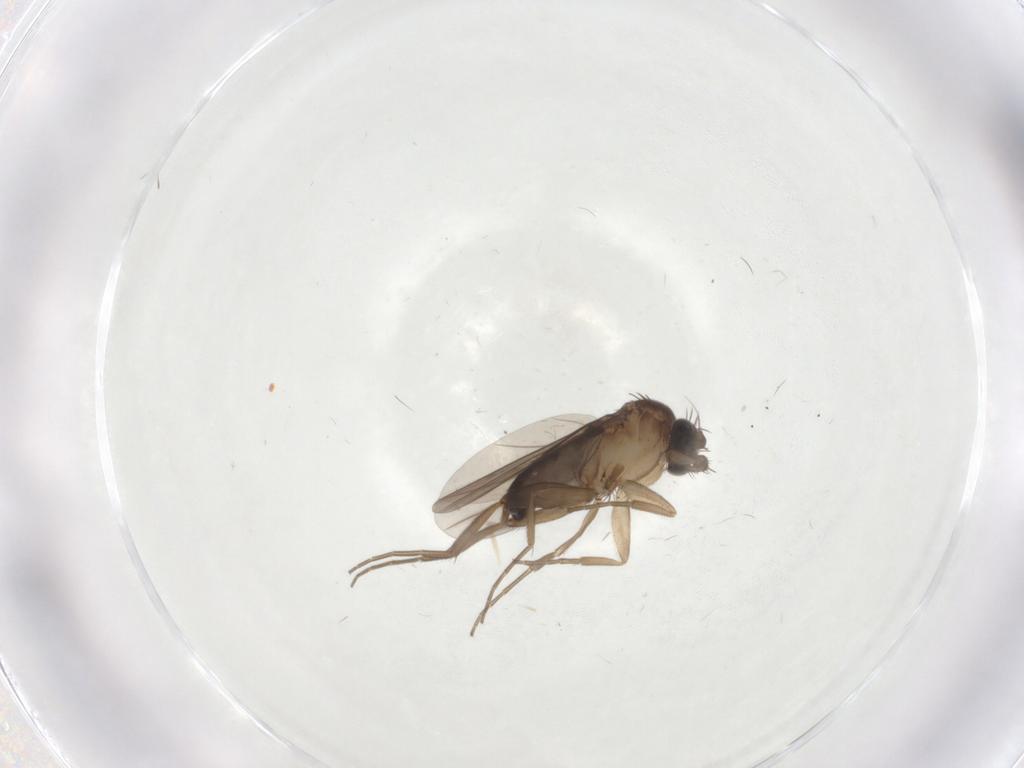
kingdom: Animalia
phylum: Arthropoda
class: Insecta
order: Diptera
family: Phoridae
